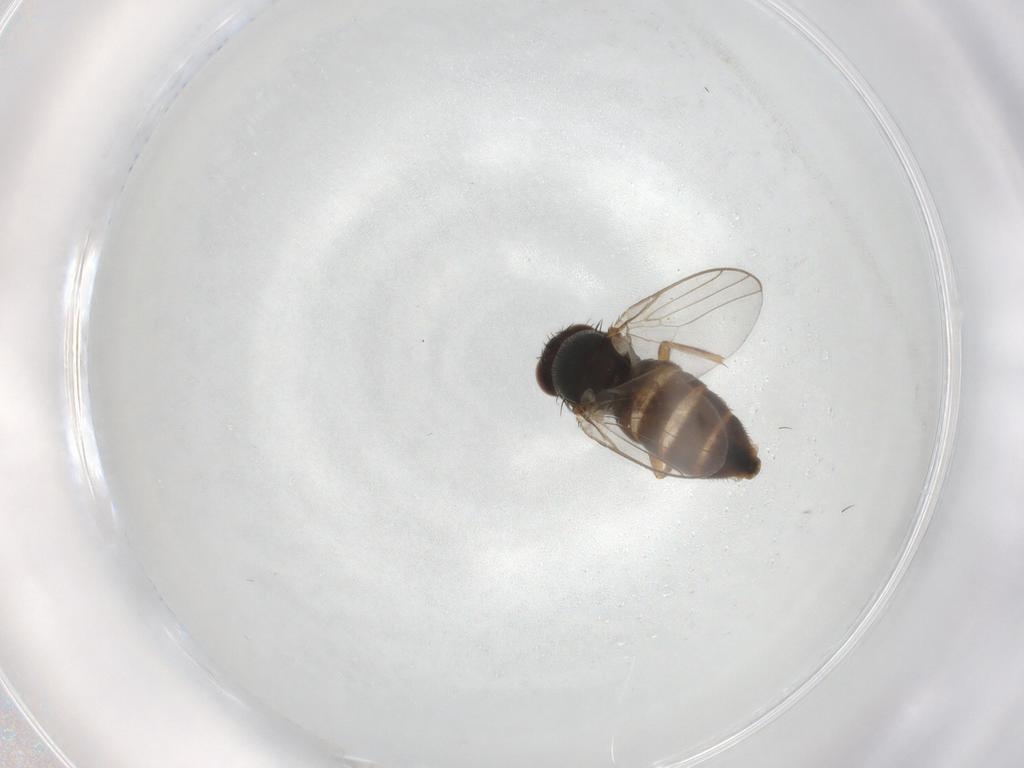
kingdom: Animalia
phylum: Arthropoda
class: Insecta
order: Diptera
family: Chloropidae
